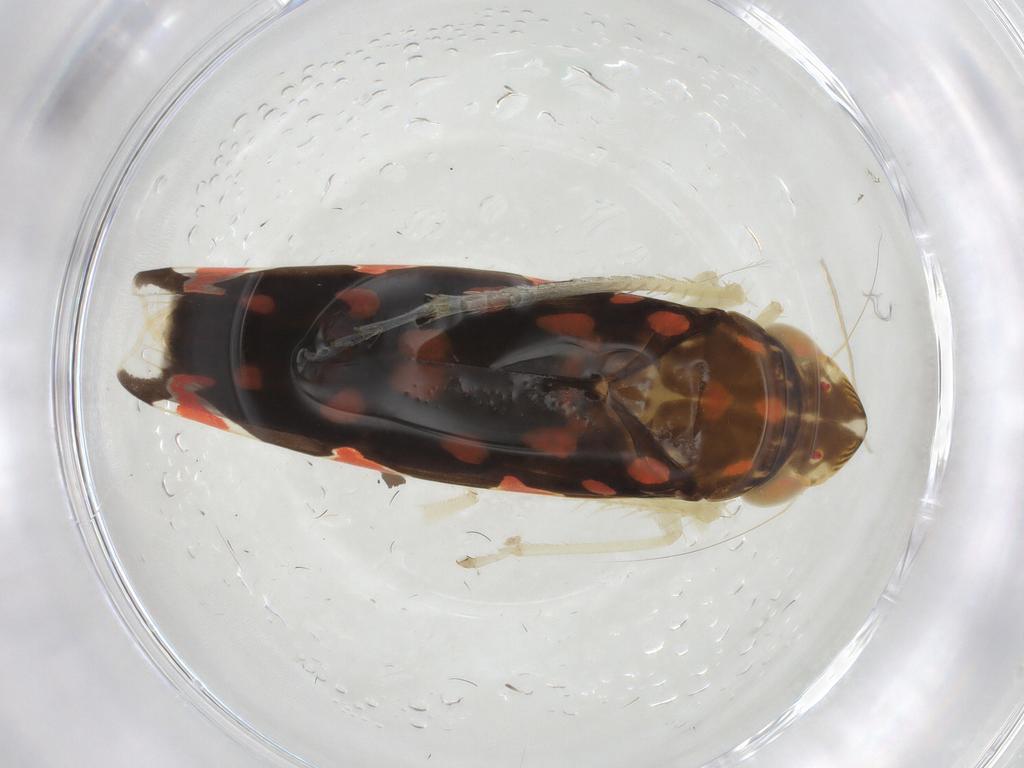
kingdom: Animalia
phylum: Arthropoda
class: Insecta
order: Hemiptera
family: Cicadellidae
